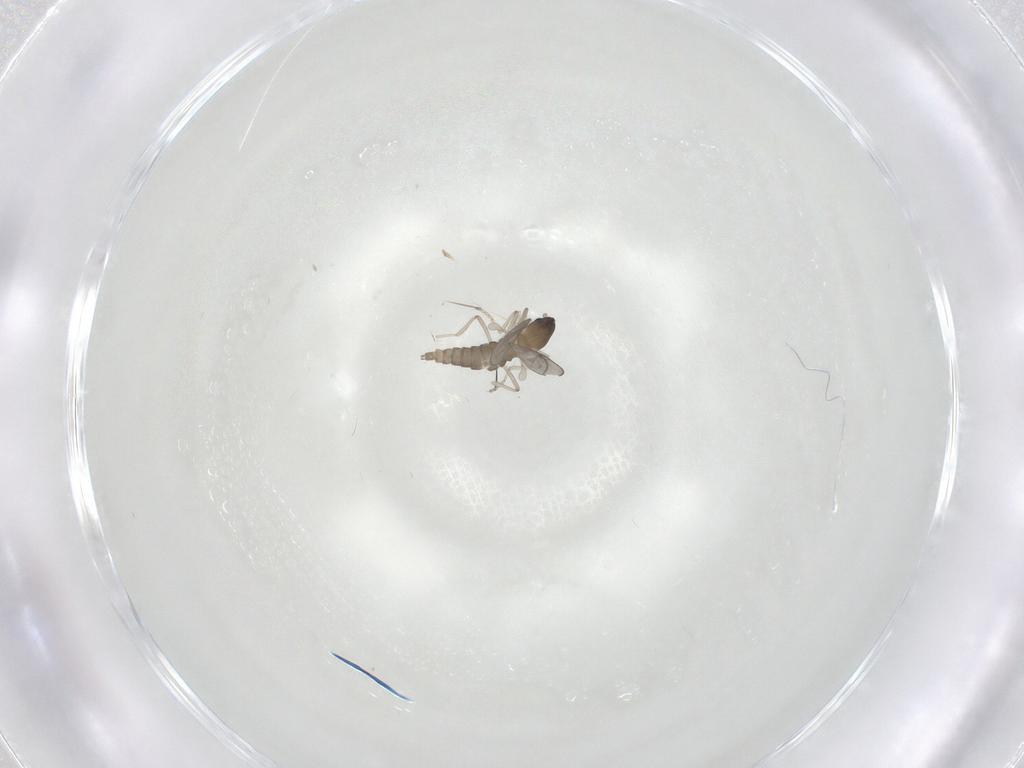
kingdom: Animalia
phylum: Arthropoda
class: Insecta
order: Diptera
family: Cecidomyiidae
